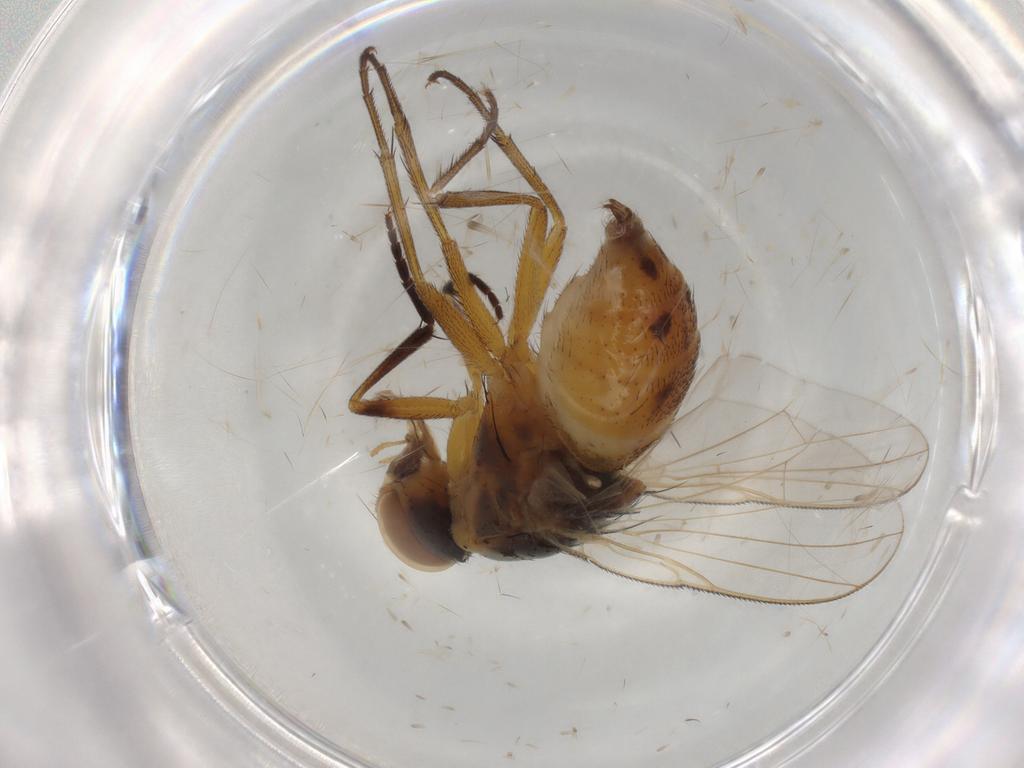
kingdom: Animalia
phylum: Arthropoda
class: Insecta
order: Diptera
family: Muscidae
